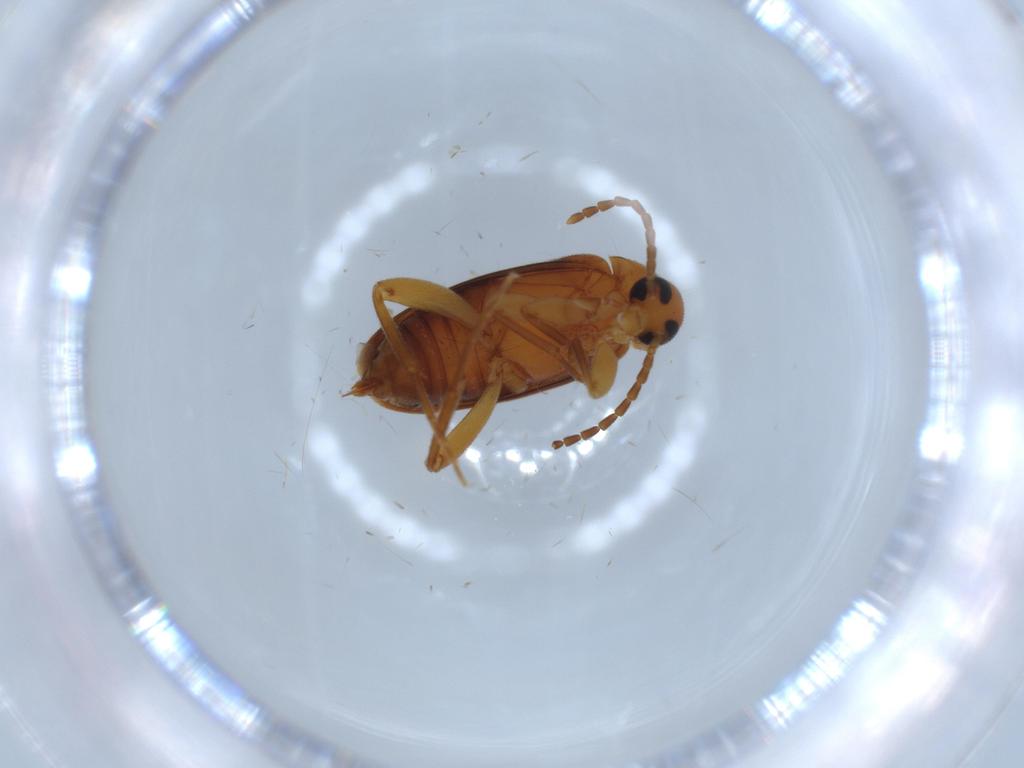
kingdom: Animalia
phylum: Arthropoda
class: Insecta
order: Coleoptera
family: Scraptiidae
